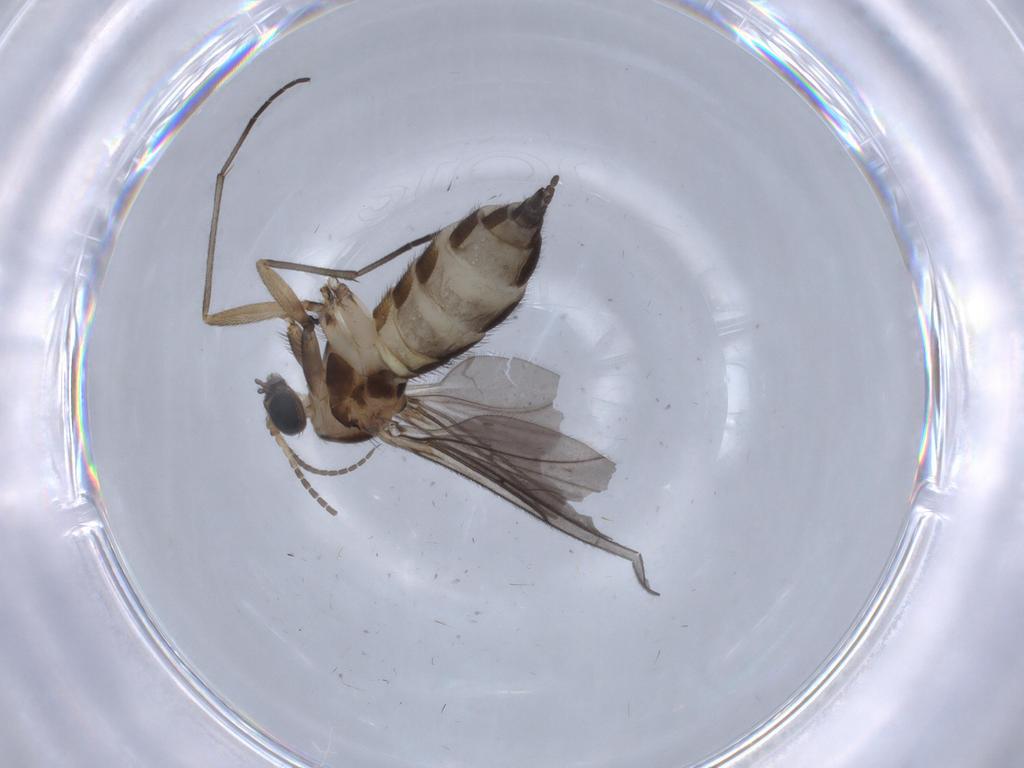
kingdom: Animalia
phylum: Arthropoda
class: Insecta
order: Diptera
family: Sciaridae
